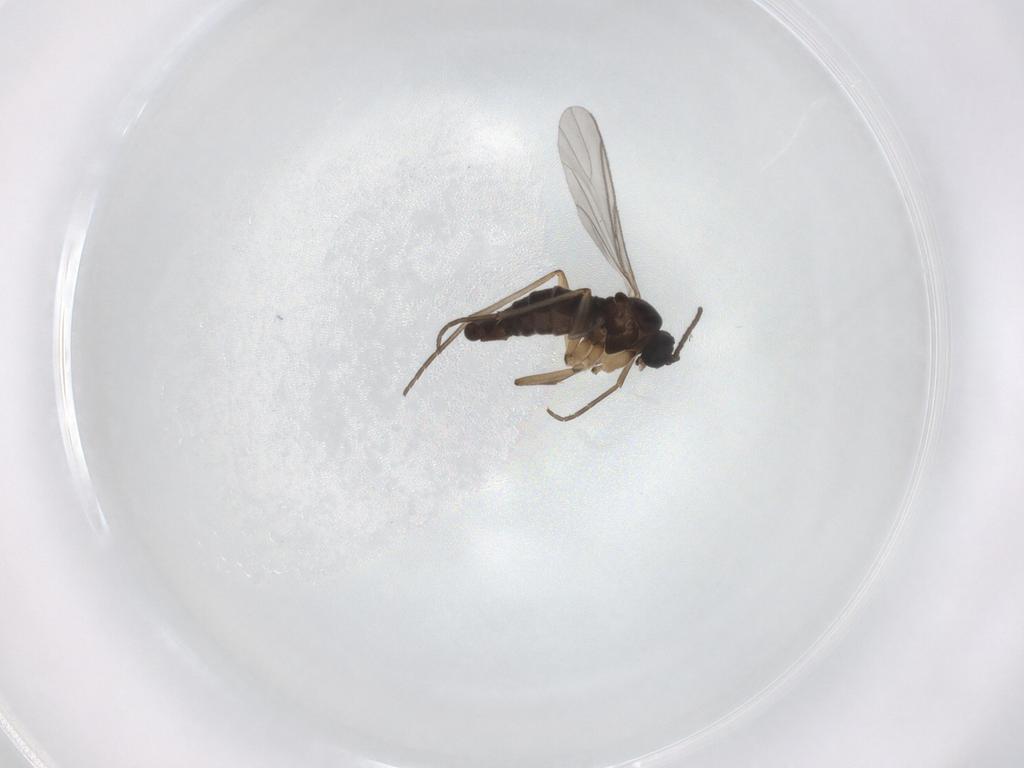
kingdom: Animalia
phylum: Arthropoda
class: Insecta
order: Diptera
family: Sciaridae
